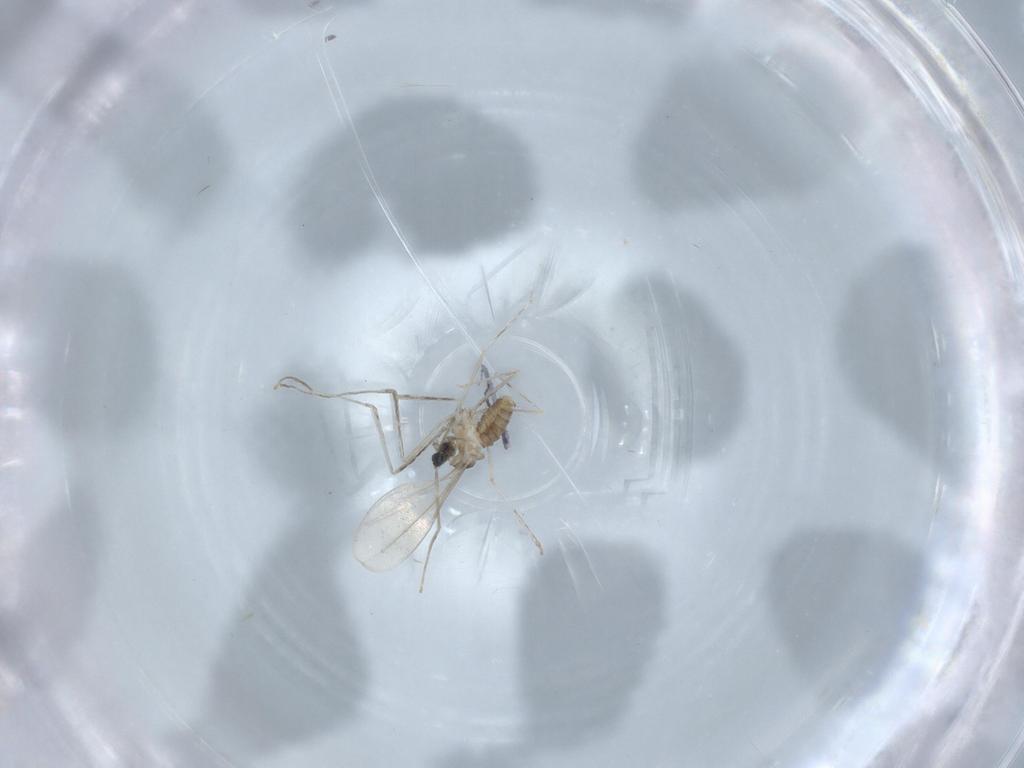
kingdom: Animalia
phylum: Arthropoda
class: Insecta
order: Diptera
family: Cecidomyiidae
